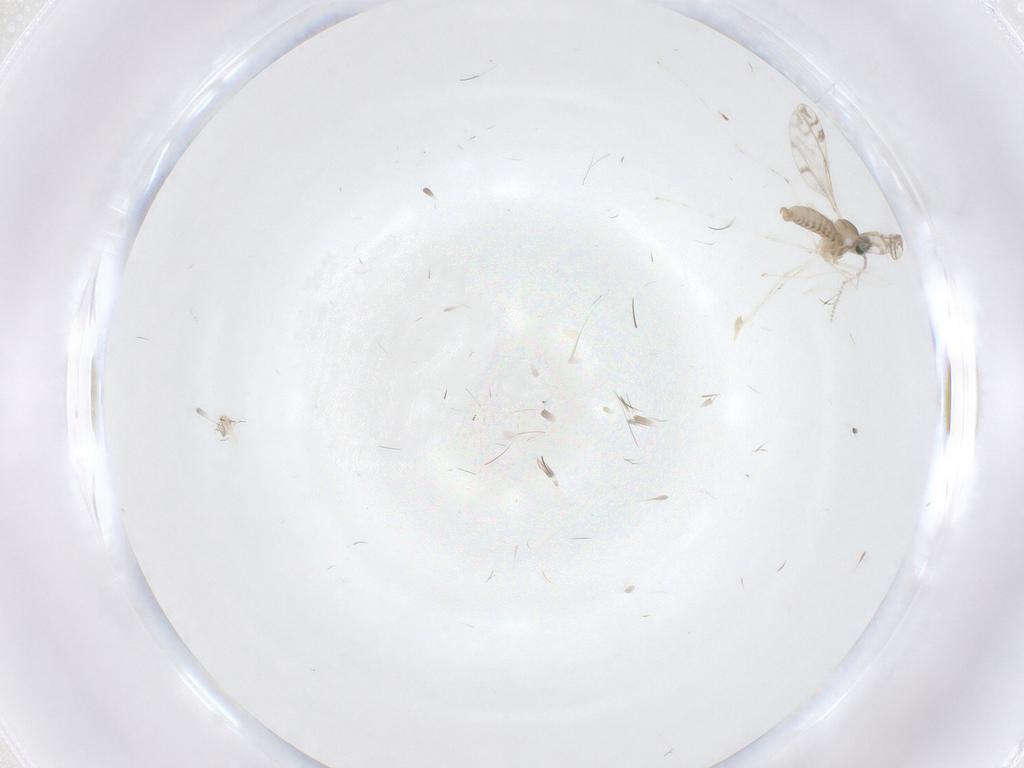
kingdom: Animalia
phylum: Arthropoda
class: Insecta
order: Diptera
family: Cecidomyiidae
